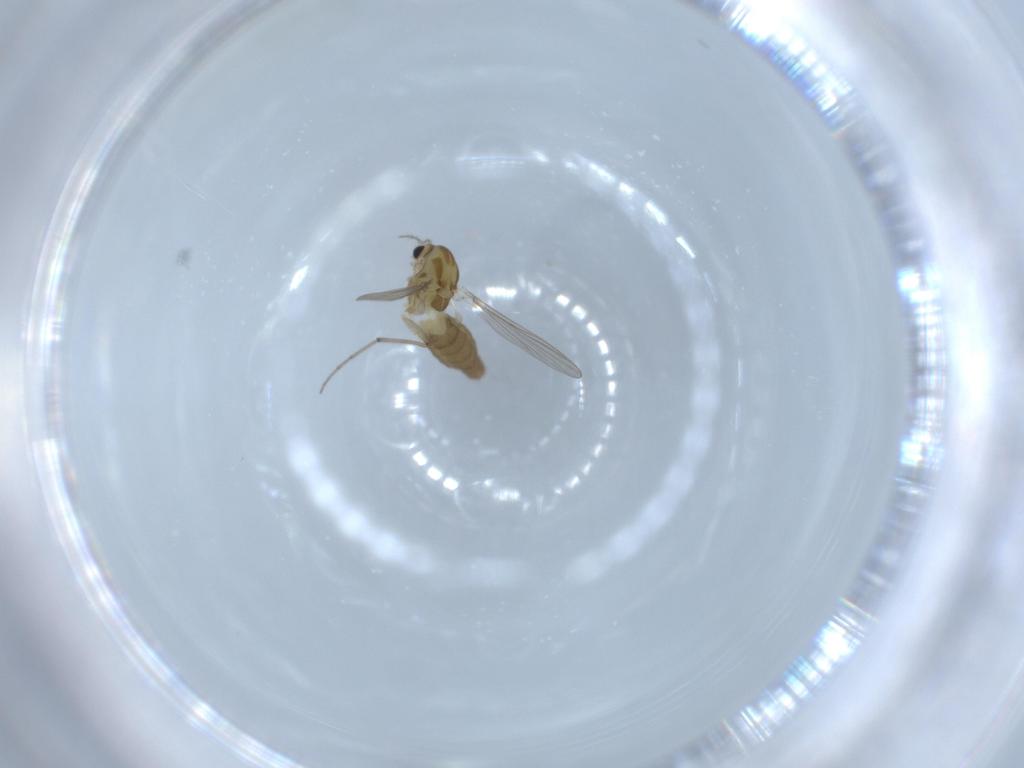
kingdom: Animalia
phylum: Arthropoda
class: Insecta
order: Diptera
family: Chironomidae
